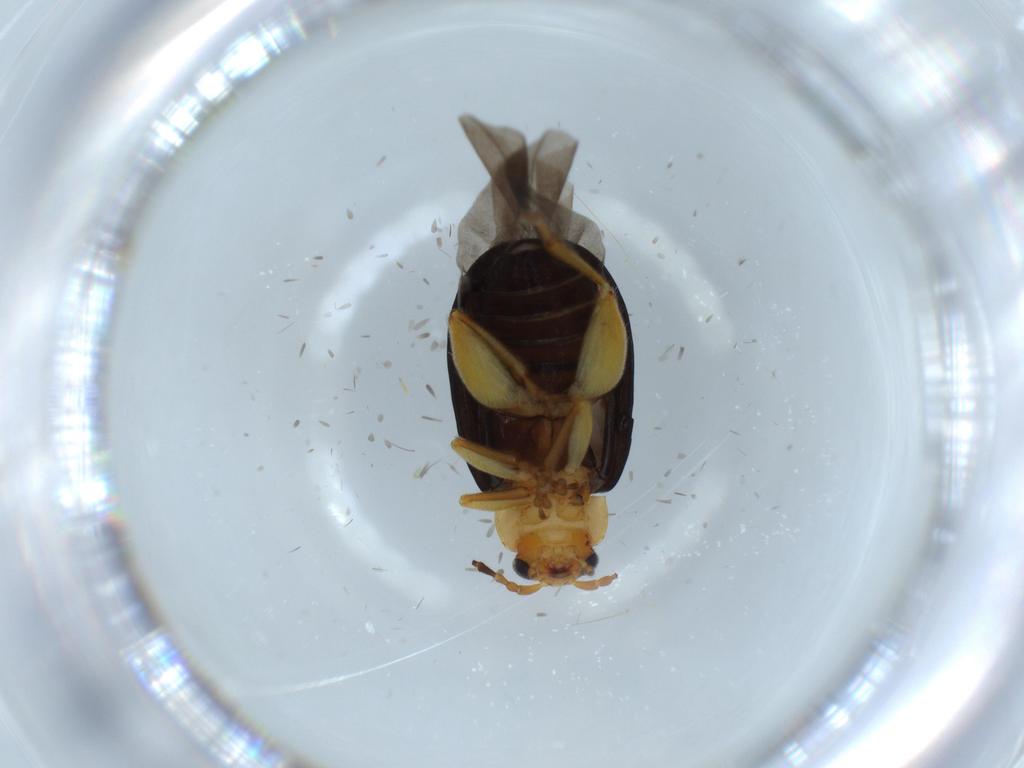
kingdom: Animalia
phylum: Arthropoda
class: Insecta
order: Coleoptera
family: Chrysomelidae
